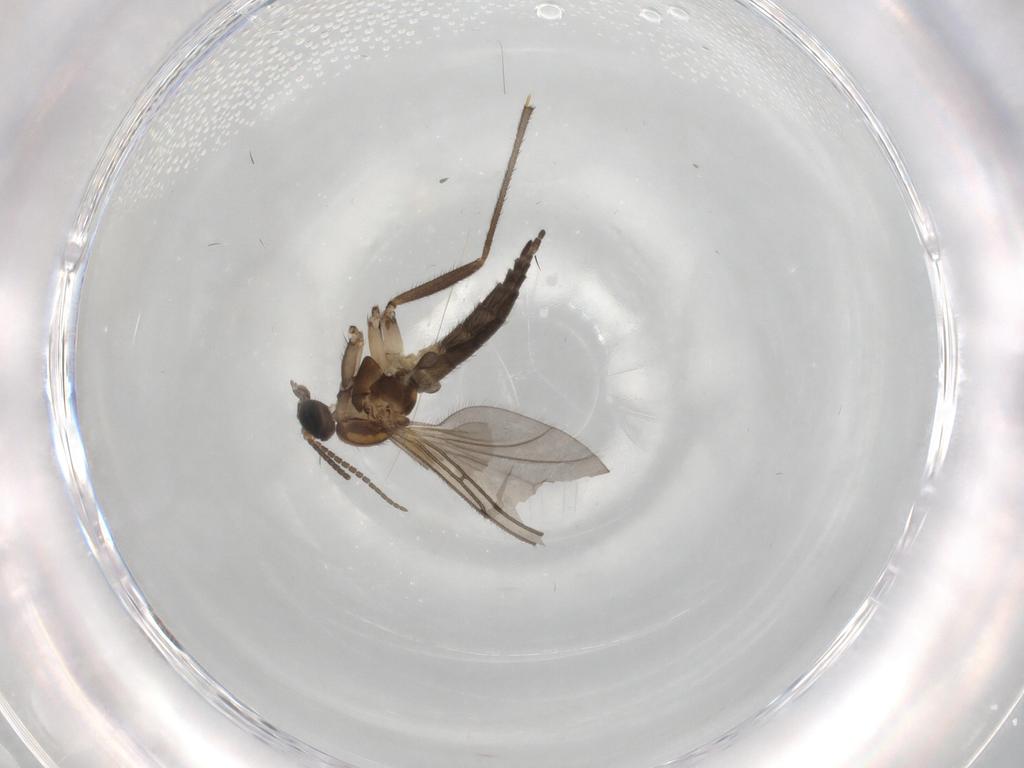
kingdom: Animalia
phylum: Arthropoda
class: Insecta
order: Diptera
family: Sciaridae
